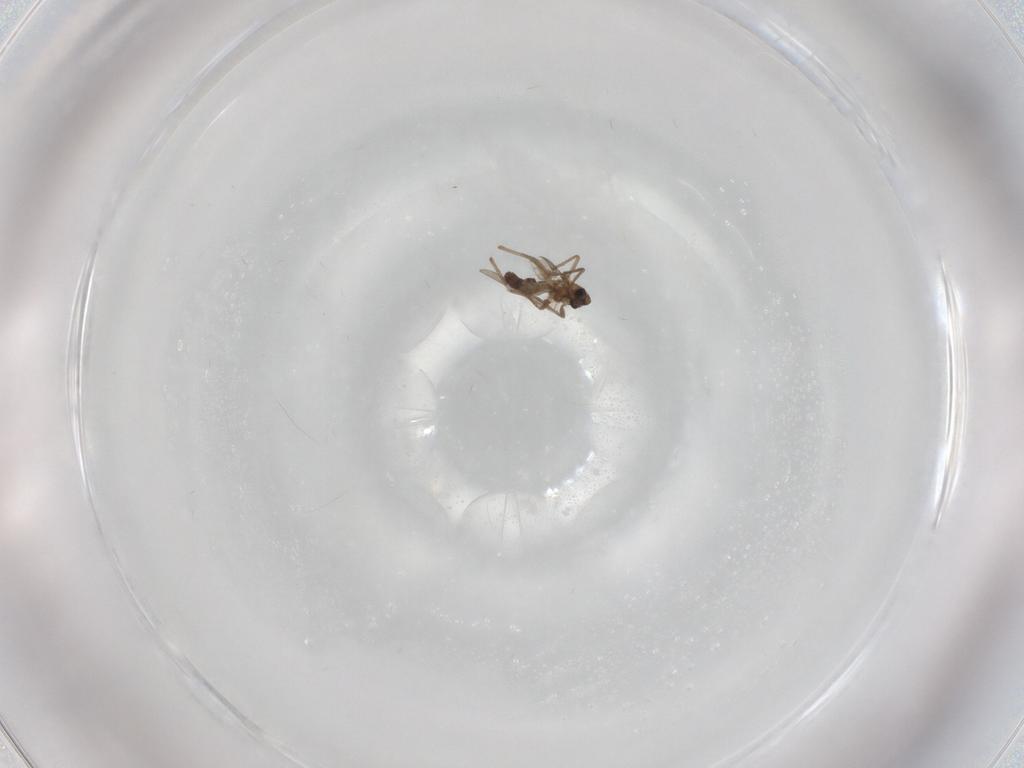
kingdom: Animalia
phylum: Arthropoda
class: Insecta
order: Diptera
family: Chironomidae
